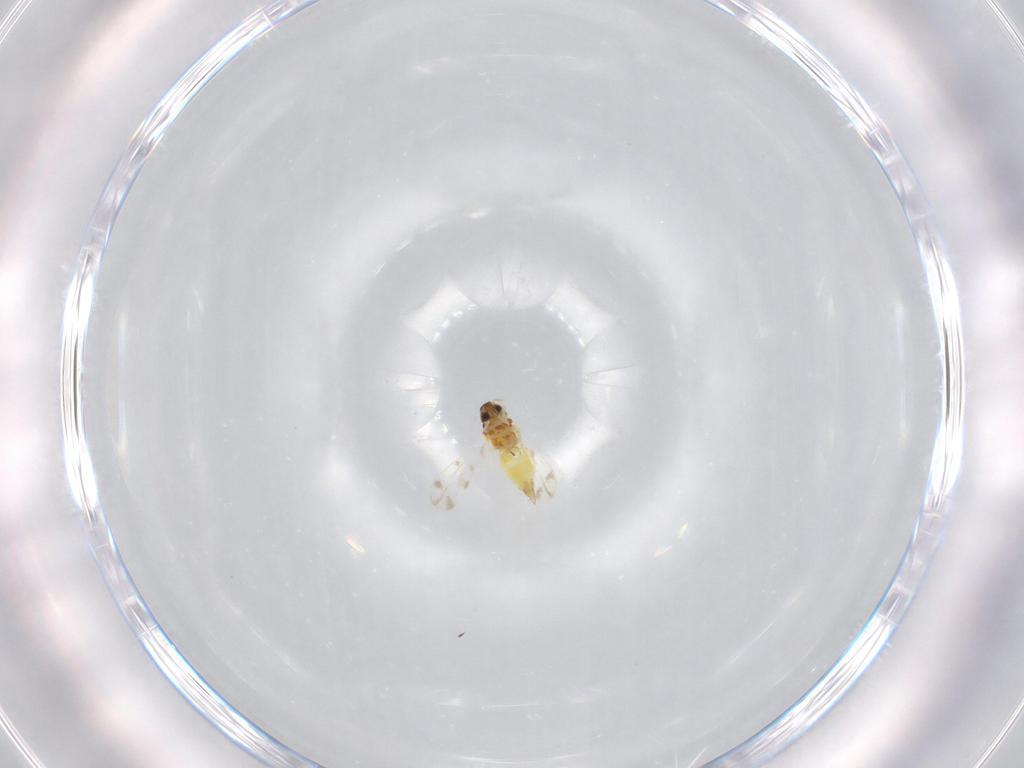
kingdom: Animalia
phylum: Arthropoda
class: Insecta
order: Hemiptera
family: Aleyrodidae
